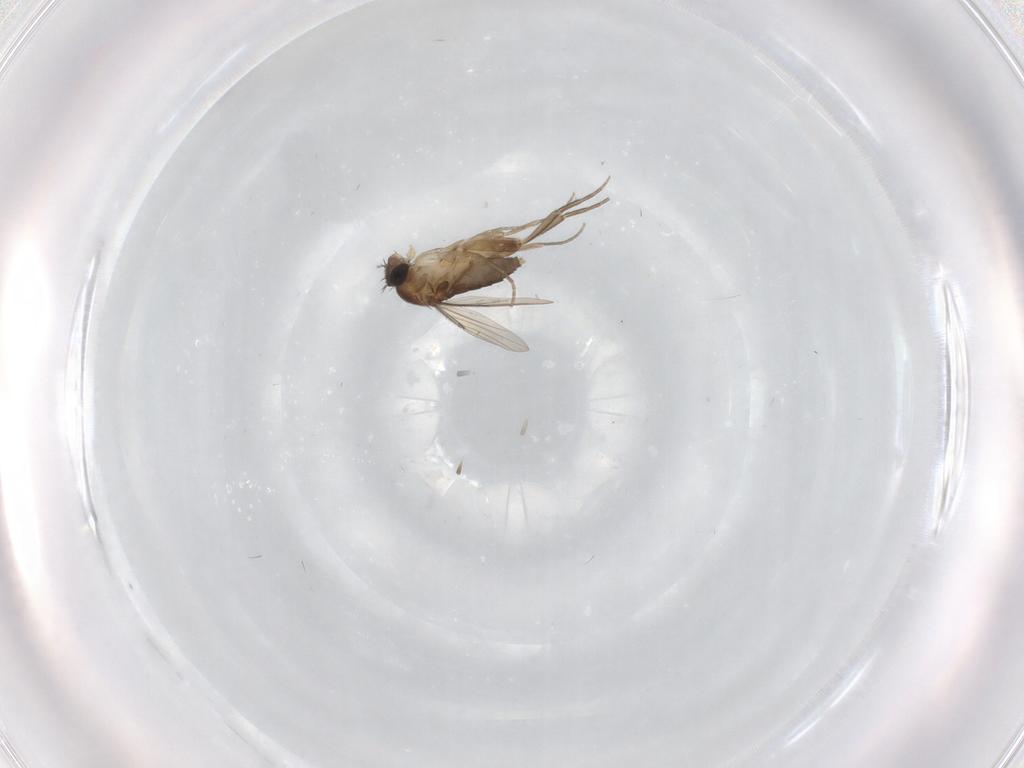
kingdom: Animalia
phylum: Arthropoda
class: Insecta
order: Diptera
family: Phoridae
